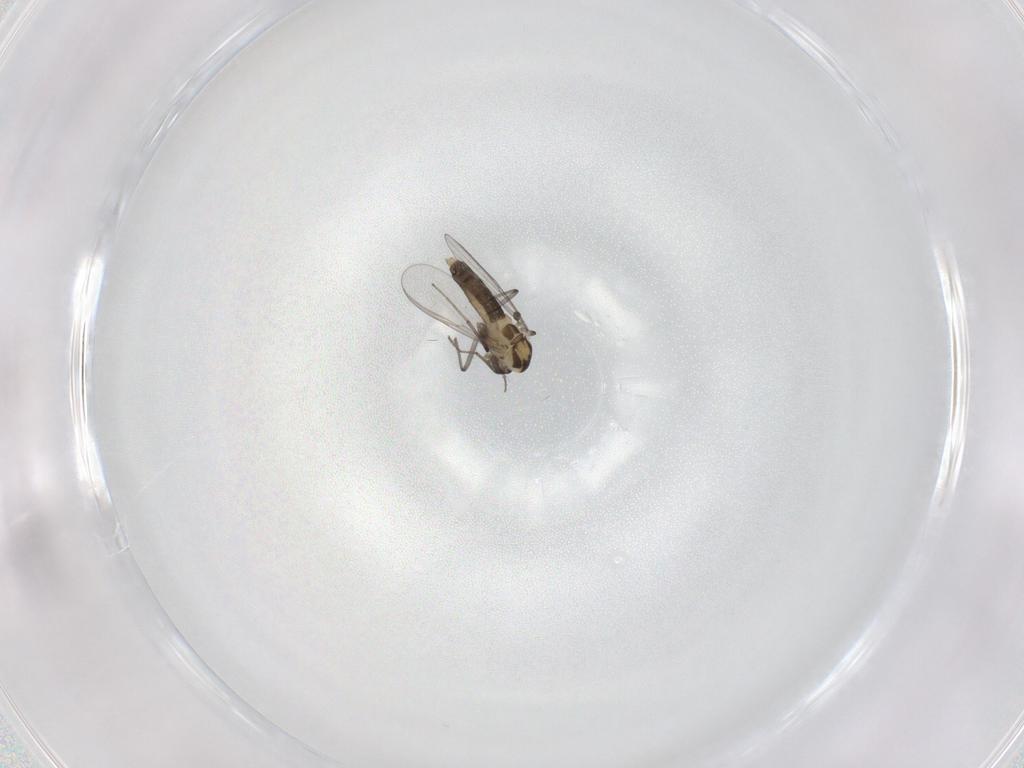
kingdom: Animalia
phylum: Arthropoda
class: Insecta
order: Diptera
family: Chironomidae
